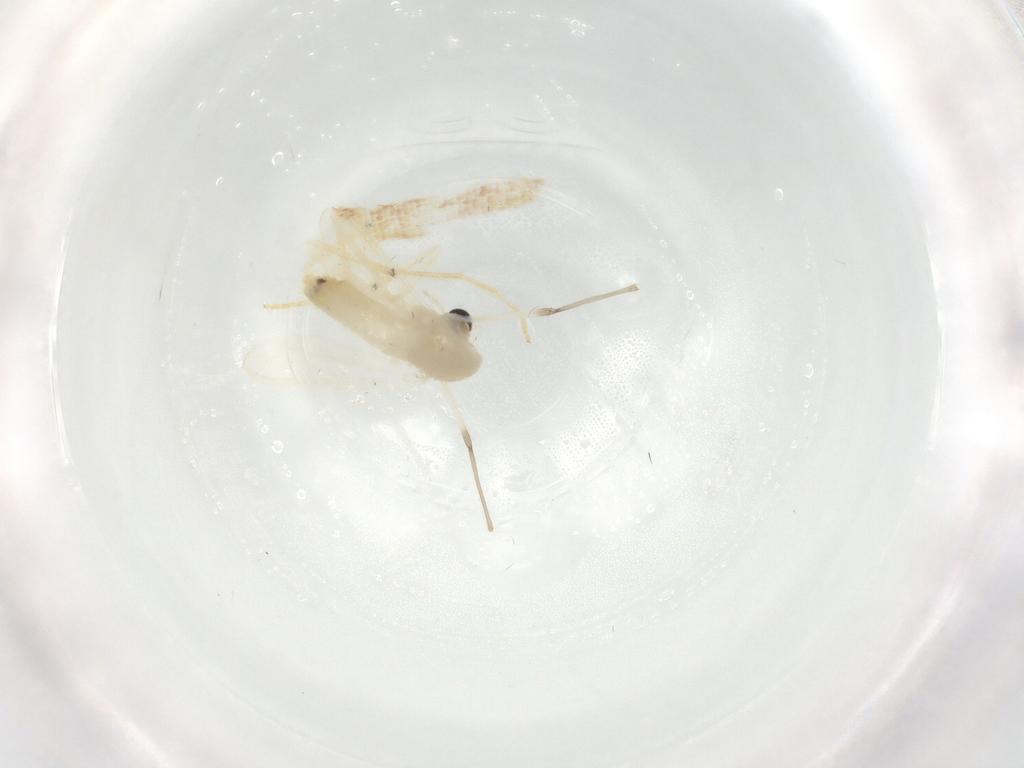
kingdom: Animalia
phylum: Arthropoda
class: Insecta
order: Diptera
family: Chironomidae
